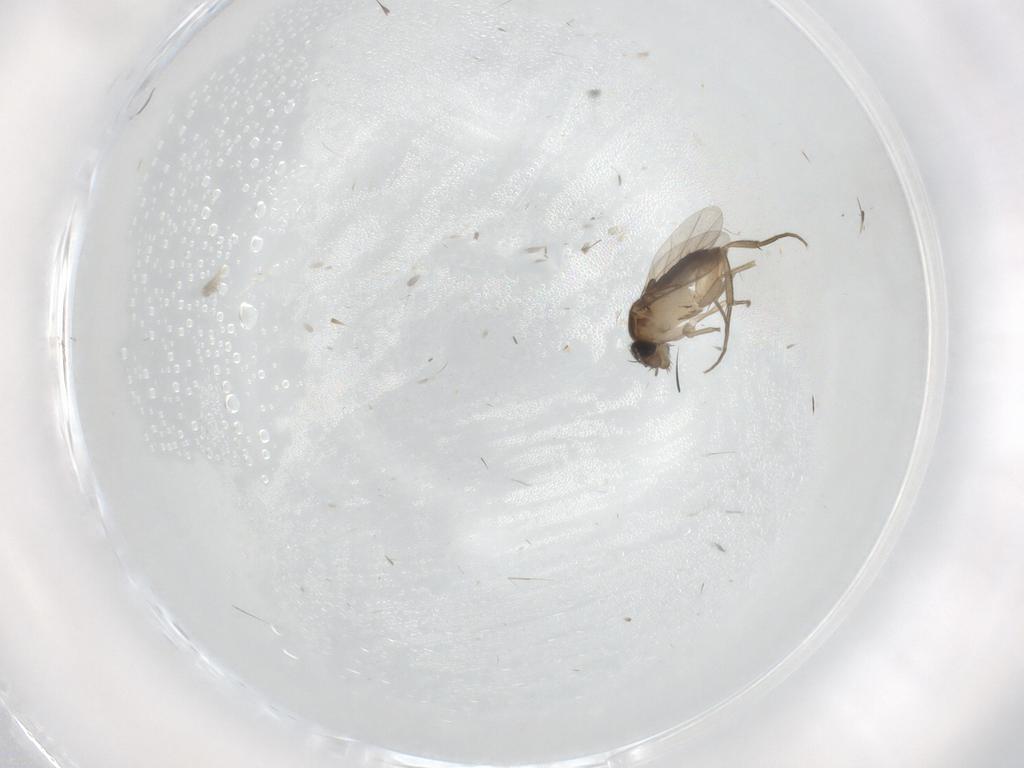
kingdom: Animalia
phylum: Arthropoda
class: Insecta
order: Diptera
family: Phoridae
